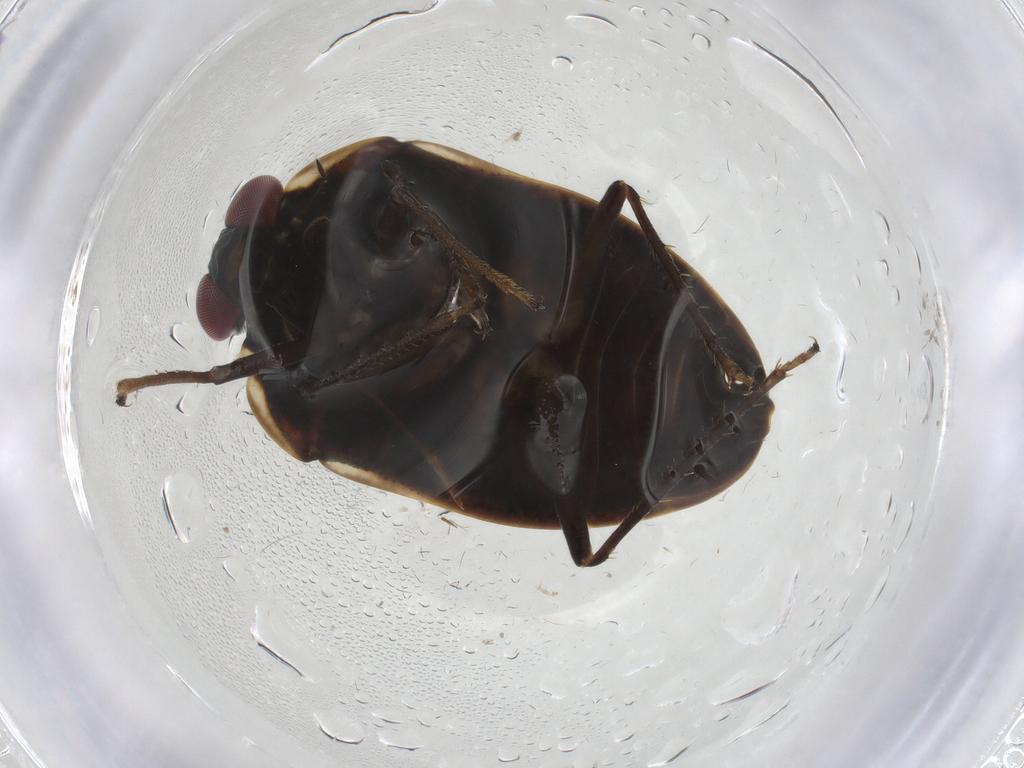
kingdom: Animalia
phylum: Arthropoda
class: Insecta
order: Hemiptera
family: Ochteridae
